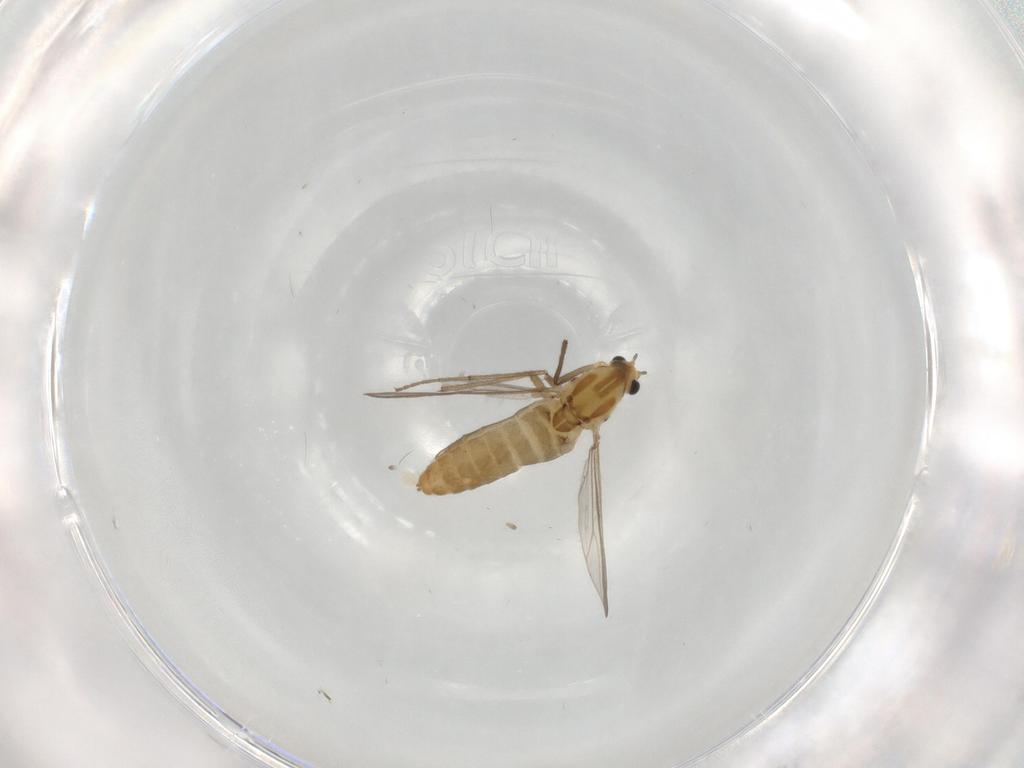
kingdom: Animalia
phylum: Arthropoda
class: Insecta
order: Diptera
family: Chironomidae
